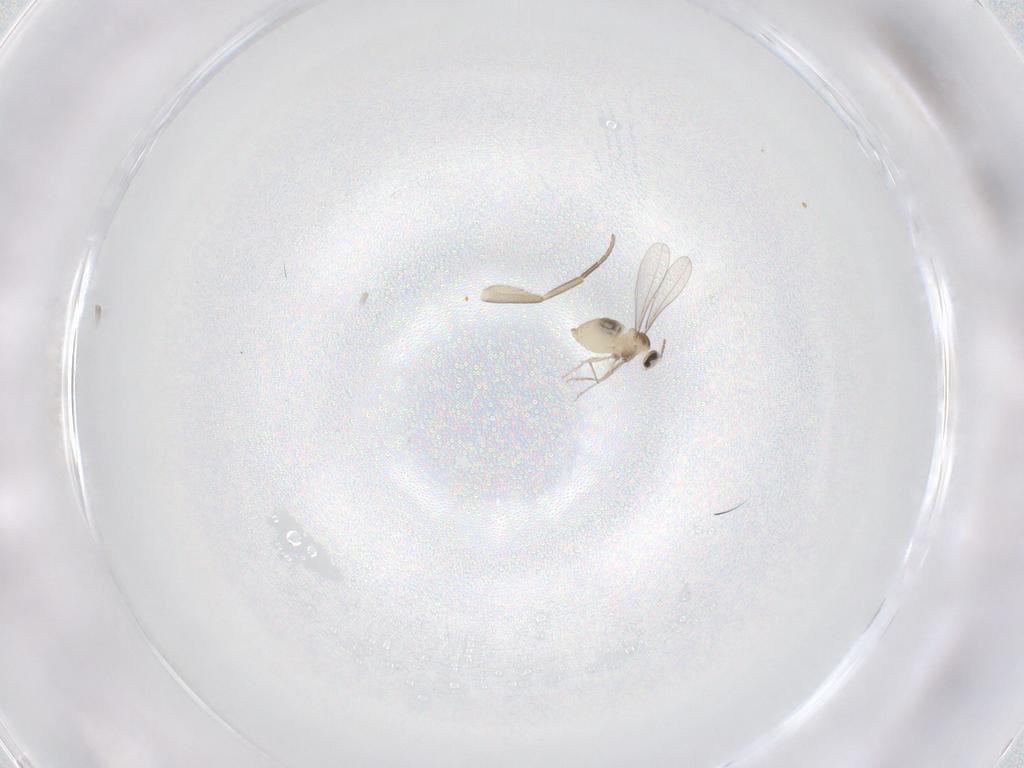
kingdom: Animalia
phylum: Arthropoda
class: Insecta
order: Diptera
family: Cecidomyiidae
